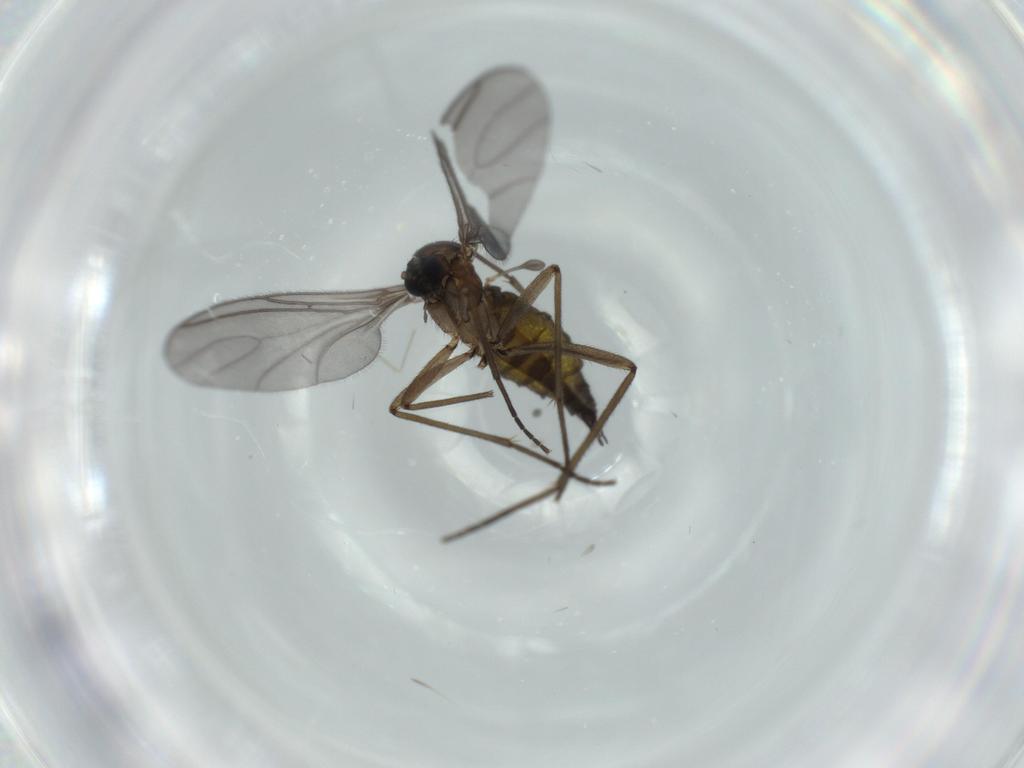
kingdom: Animalia
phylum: Arthropoda
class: Insecta
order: Diptera
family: Sciaridae
